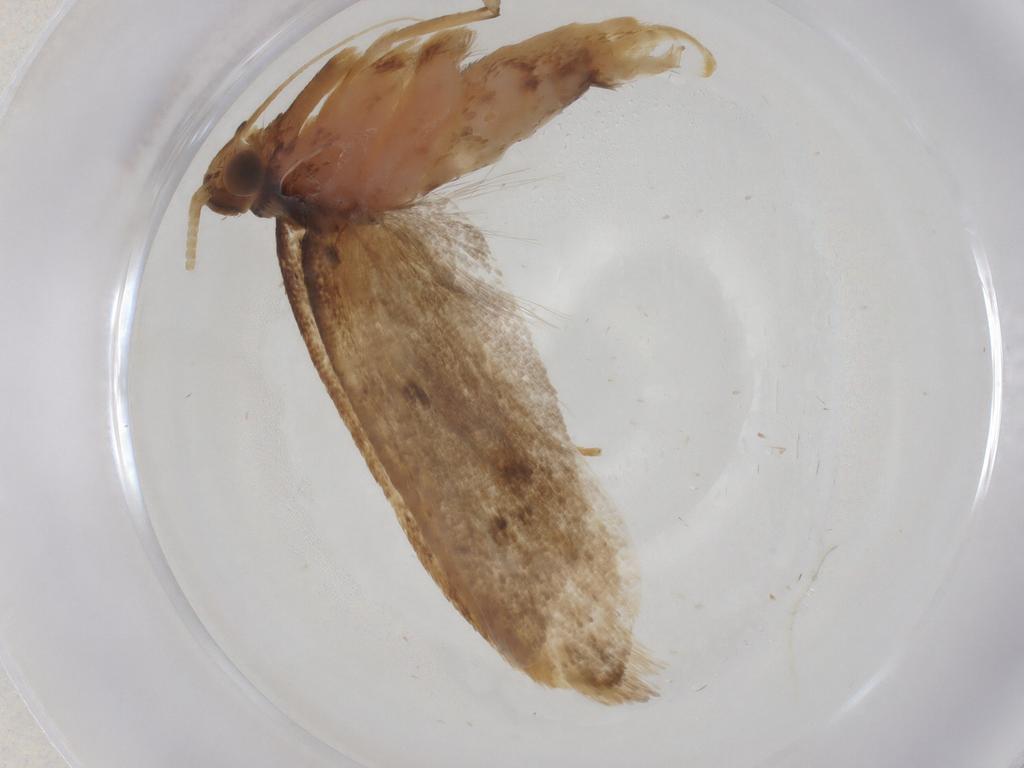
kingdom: Animalia
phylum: Arthropoda
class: Insecta
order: Lepidoptera
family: Lecithoceridae
